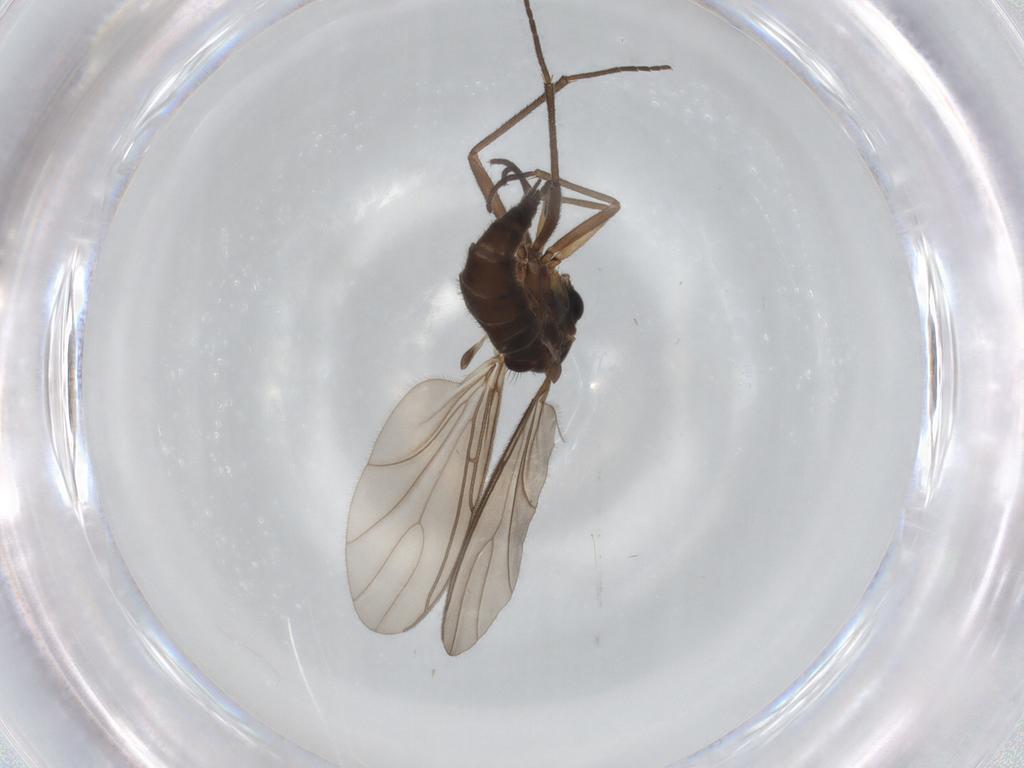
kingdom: Animalia
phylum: Arthropoda
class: Insecta
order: Diptera
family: Sciaridae
